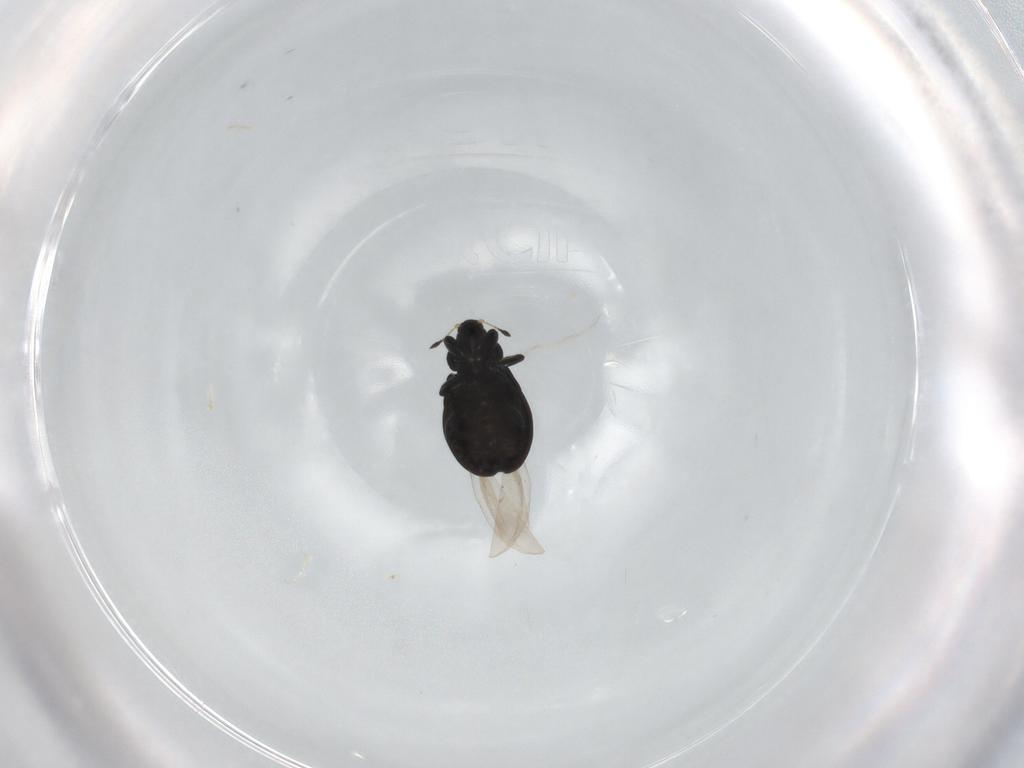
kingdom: Animalia
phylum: Arthropoda
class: Insecta
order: Coleoptera
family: Curculionidae
